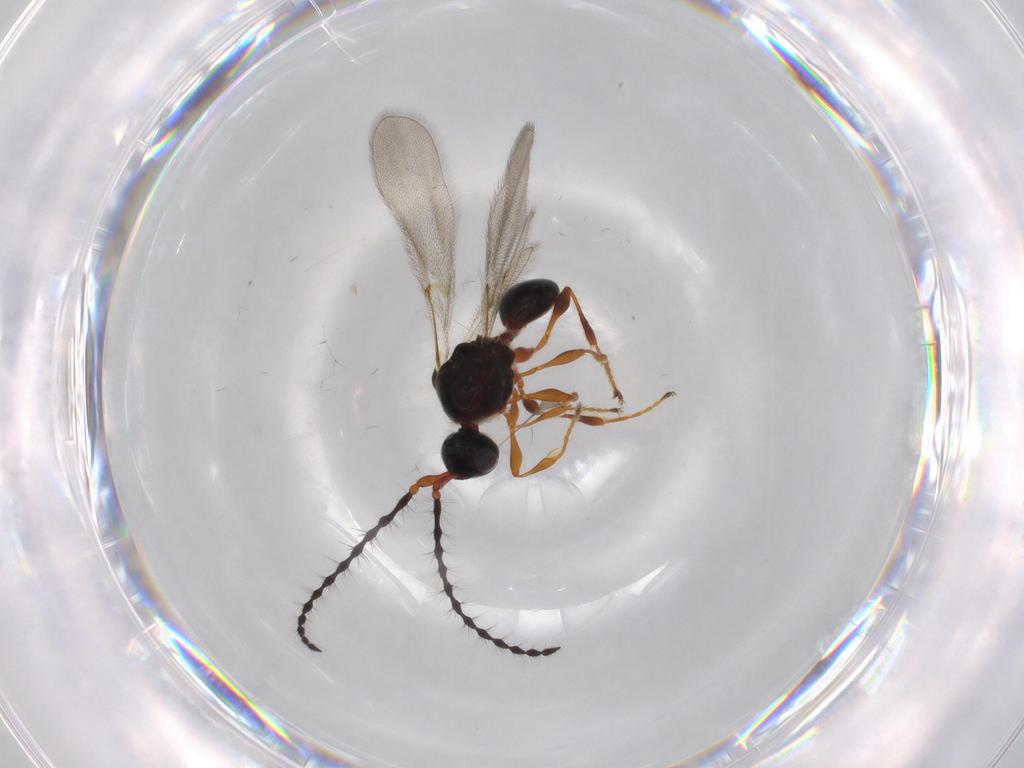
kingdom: Animalia
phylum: Arthropoda
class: Insecta
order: Hymenoptera
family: Diapriidae
